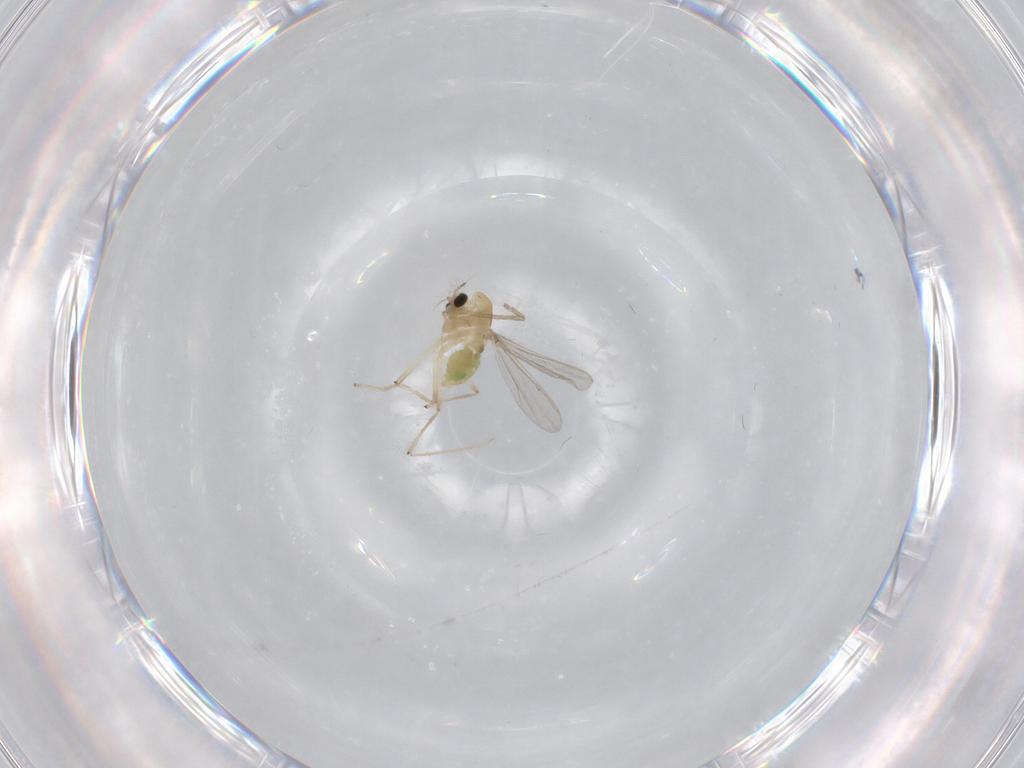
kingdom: Animalia
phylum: Arthropoda
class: Insecta
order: Diptera
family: Chironomidae
